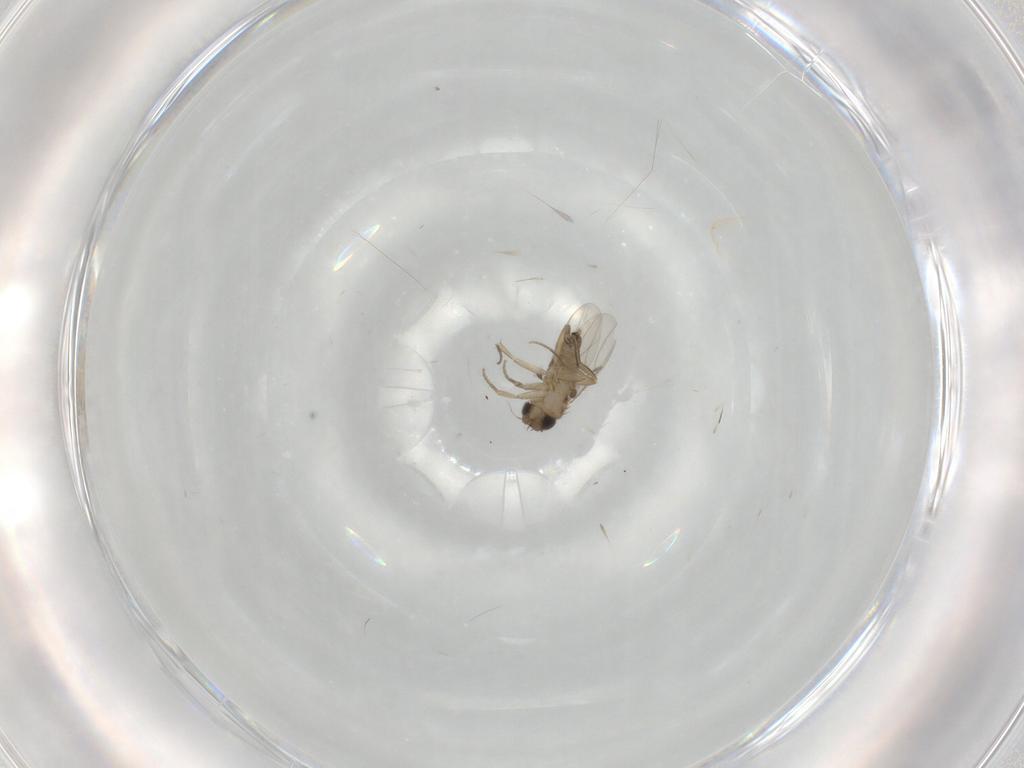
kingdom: Animalia
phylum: Arthropoda
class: Insecta
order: Diptera
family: Phoridae
